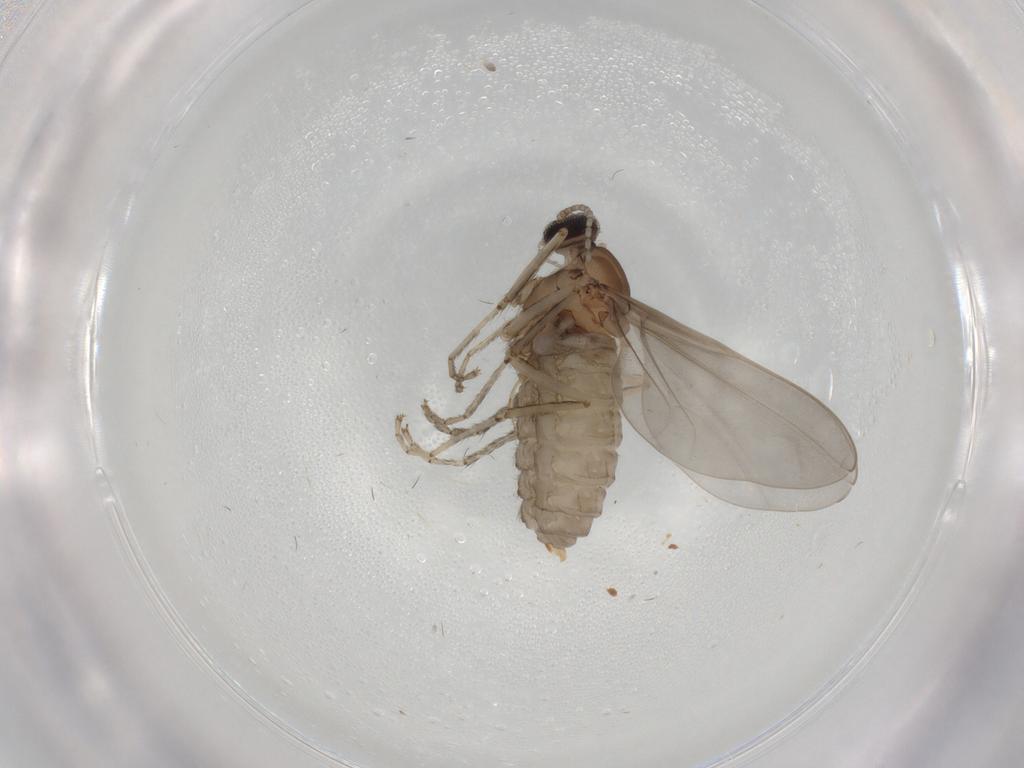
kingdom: Animalia
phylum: Arthropoda
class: Insecta
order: Diptera
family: Cecidomyiidae
